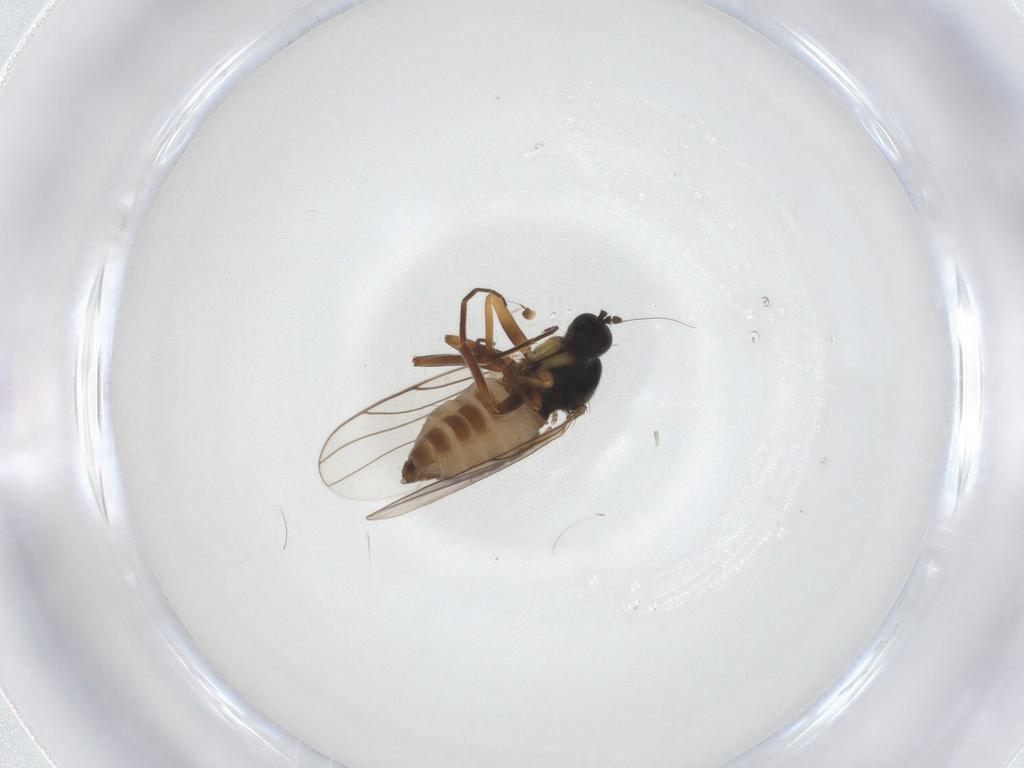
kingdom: Animalia
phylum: Arthropoda
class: Insecta
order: Diptera
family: Hybotidae
